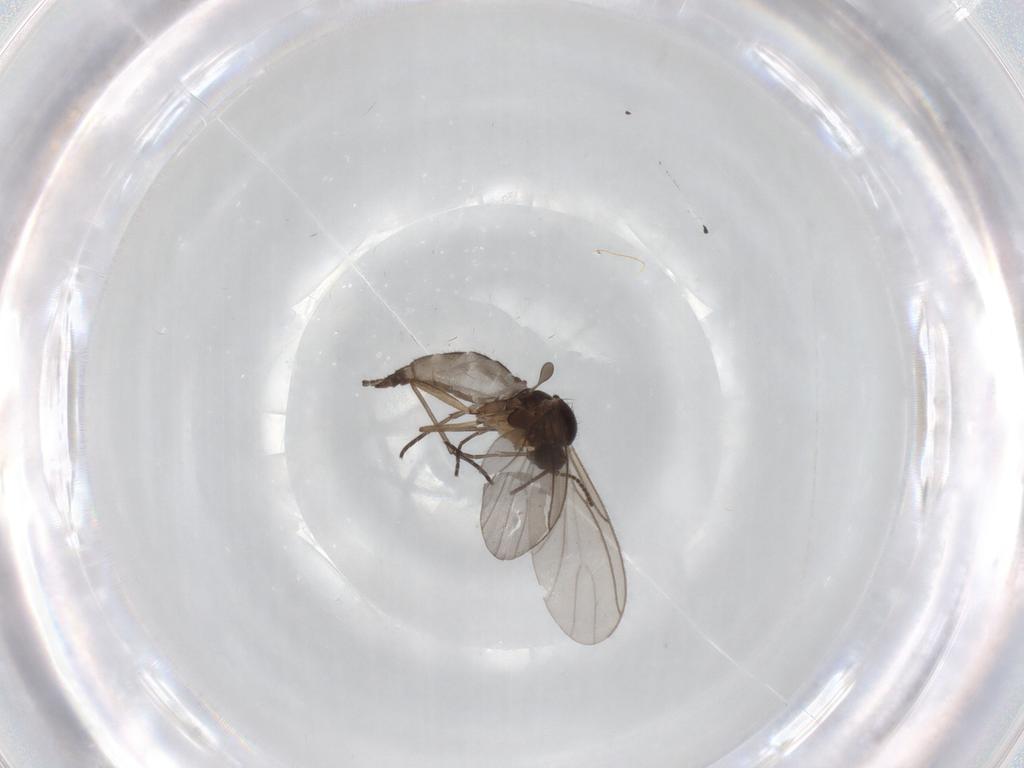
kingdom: Animalia
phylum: Arthropoda
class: Insecta
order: Diptera
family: Sciaridae
